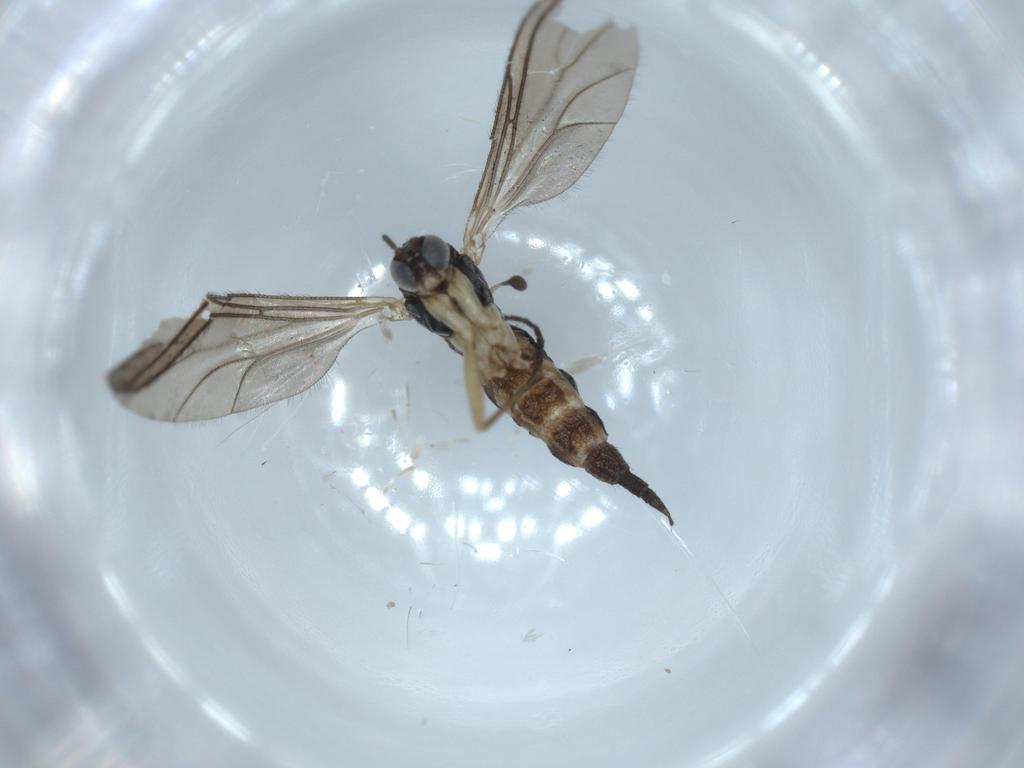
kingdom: Animalia
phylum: Arthropoda
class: Insecta
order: Diptera
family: Sciaridae
